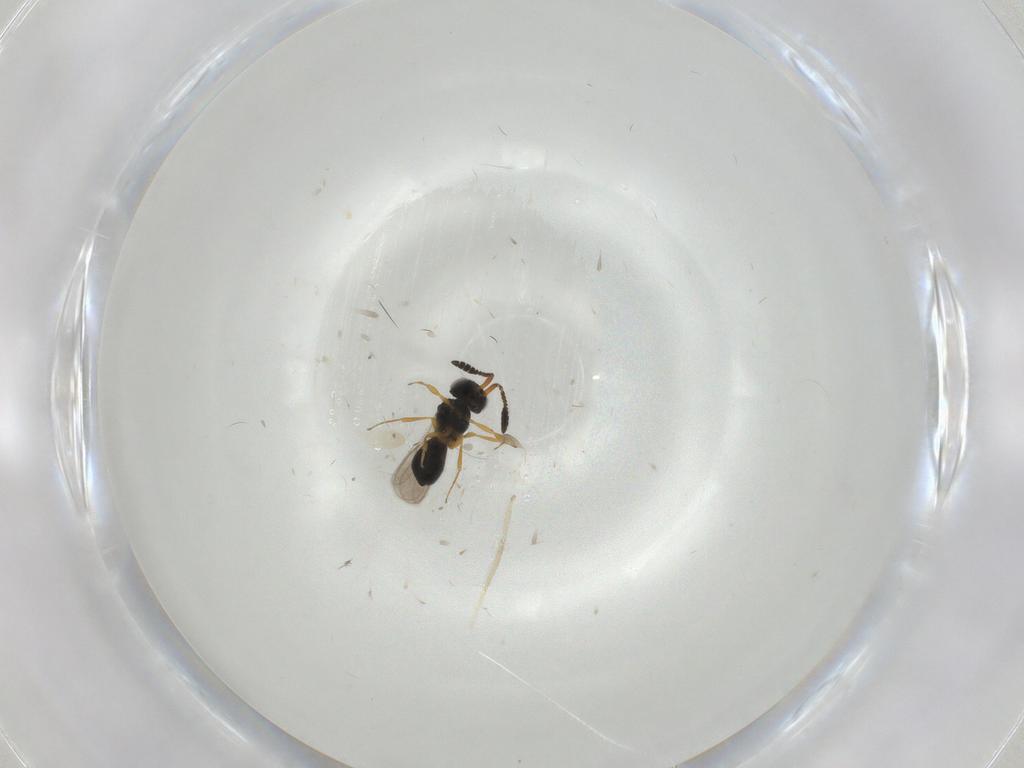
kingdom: Animalia
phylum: Arthropoda
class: Insecta
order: Hymenoptera
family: Scelionidae
